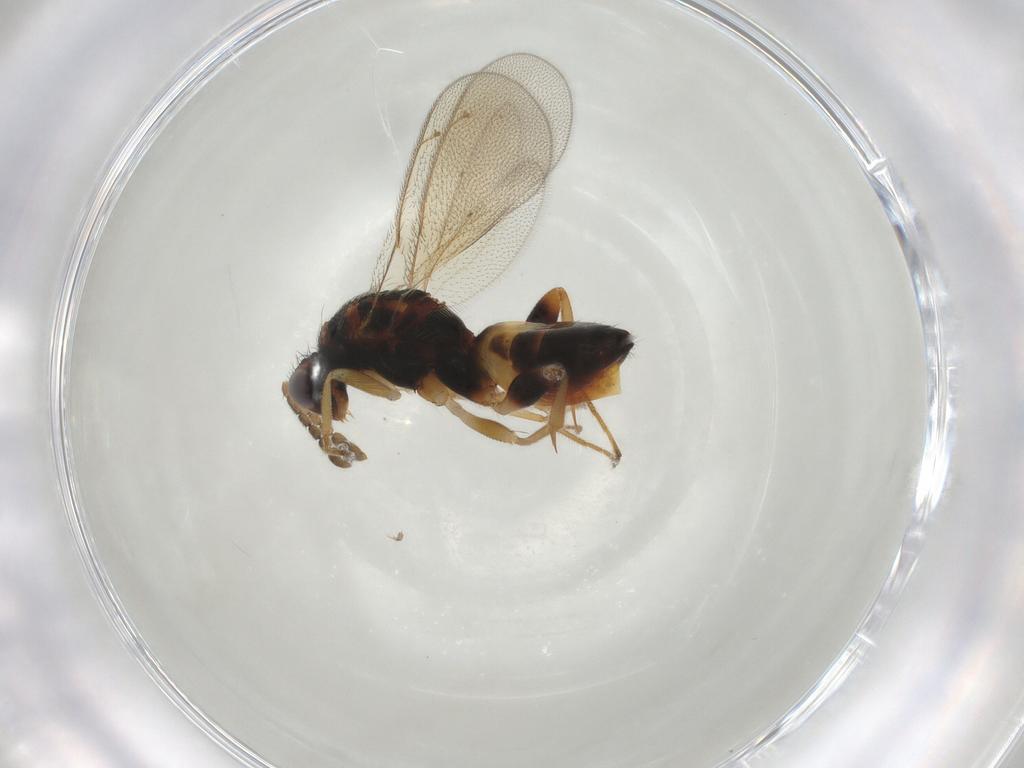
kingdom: Animalia
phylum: Arthropoda
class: Insecta
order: Hymenoptera
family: Eulophidae
